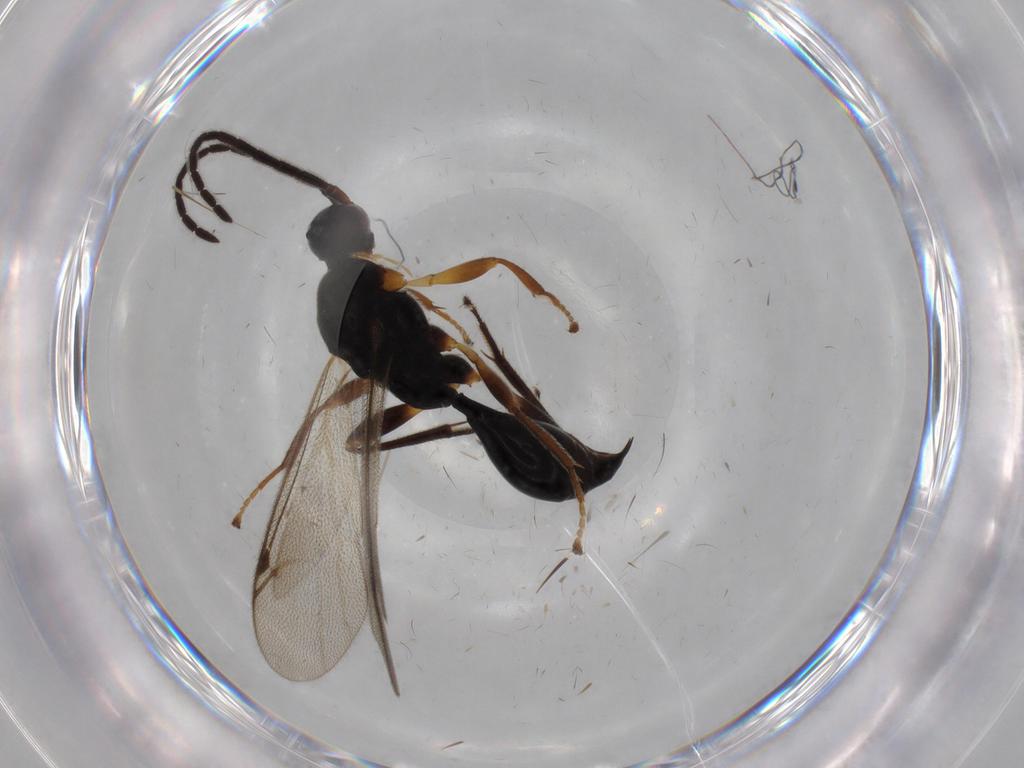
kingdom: Animalia
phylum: Arthropoda
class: Insecta
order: Hymenoptera
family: Proctotrupidae
